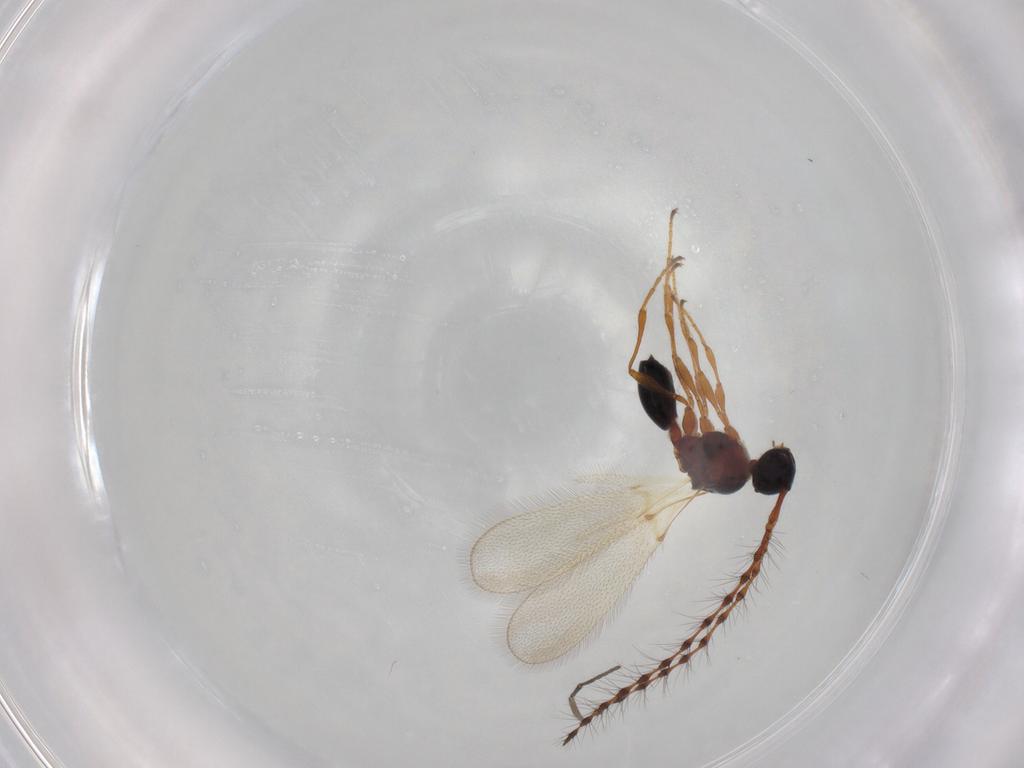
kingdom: Animalia
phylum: Arthropoda
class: Insecta
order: Hymenoptera
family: Diapriidae
